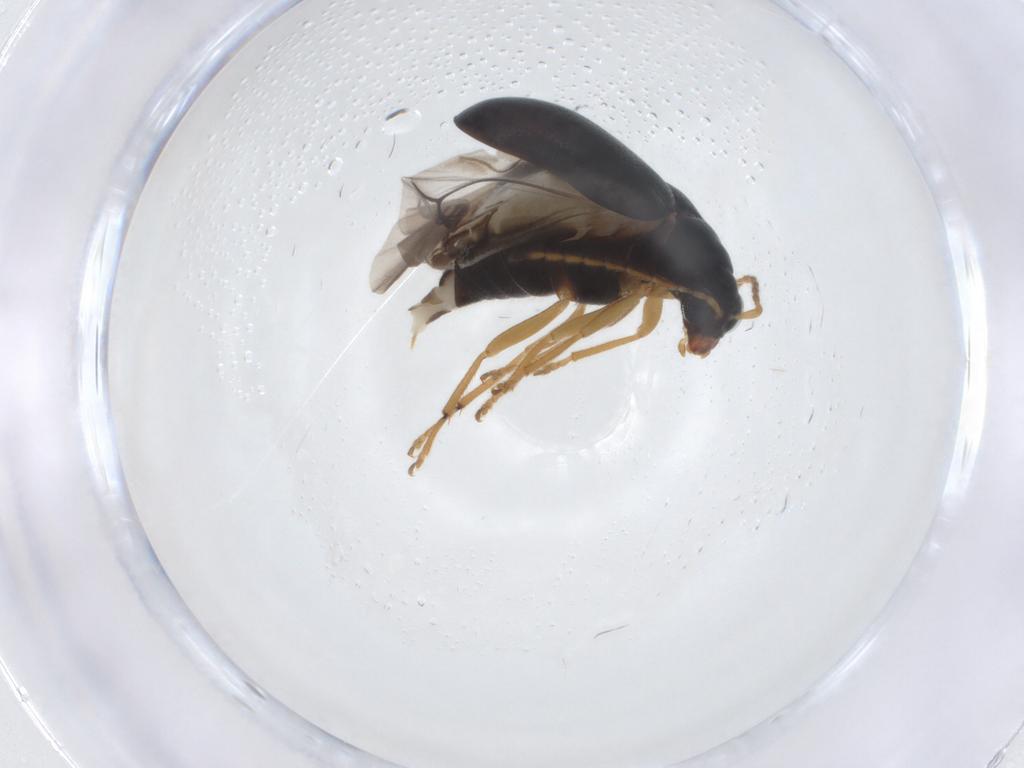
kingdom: Animalia
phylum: Arthropoda
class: Insecta
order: Coleoptera
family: Chrysomelidae
